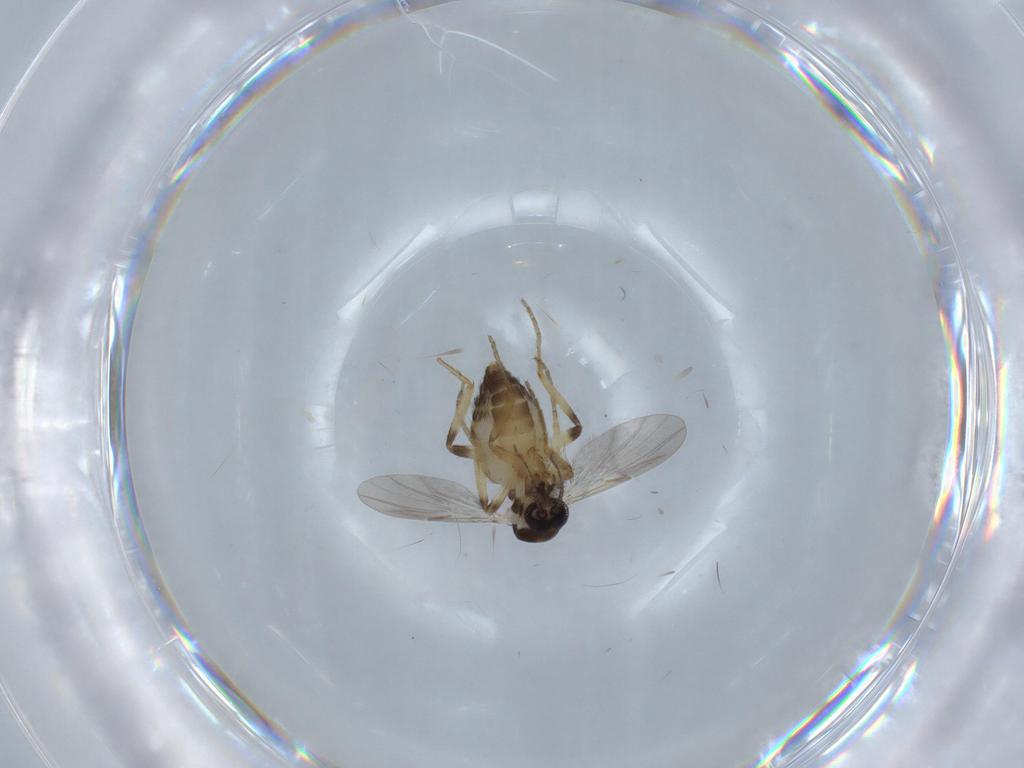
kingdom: Animalia
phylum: Arthropoda
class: Insecta
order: Diptera
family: Ceratopogonidae
